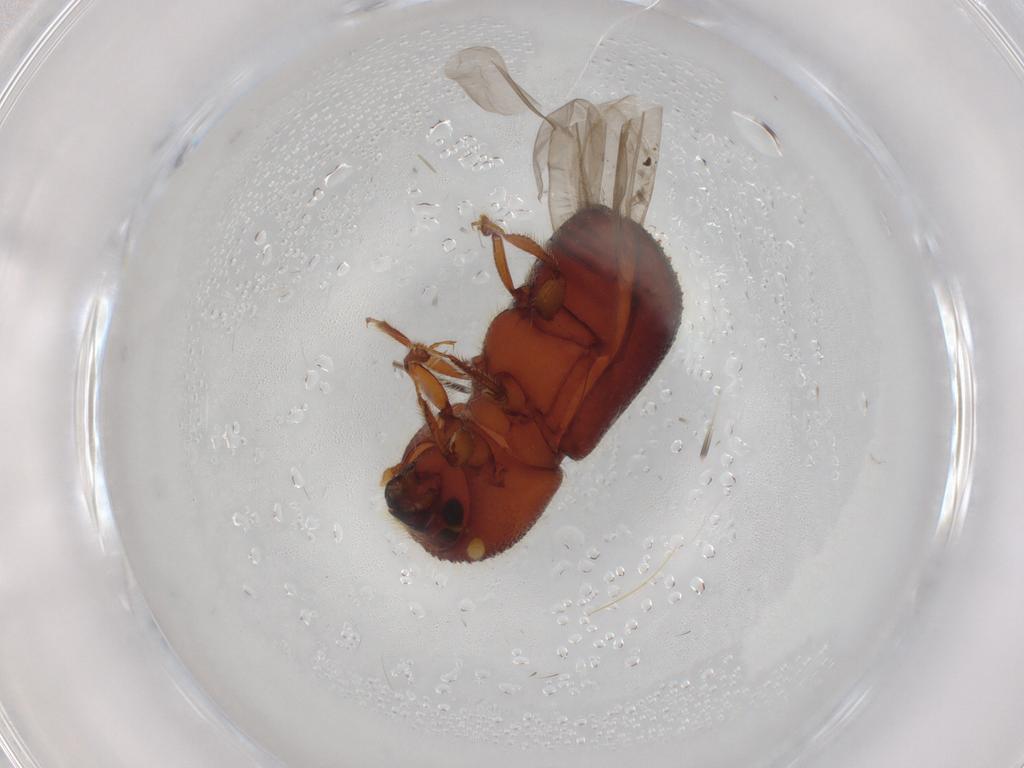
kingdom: Animalia
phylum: Arthropoda
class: Insecta
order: Coleoptera
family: Curculionidae
